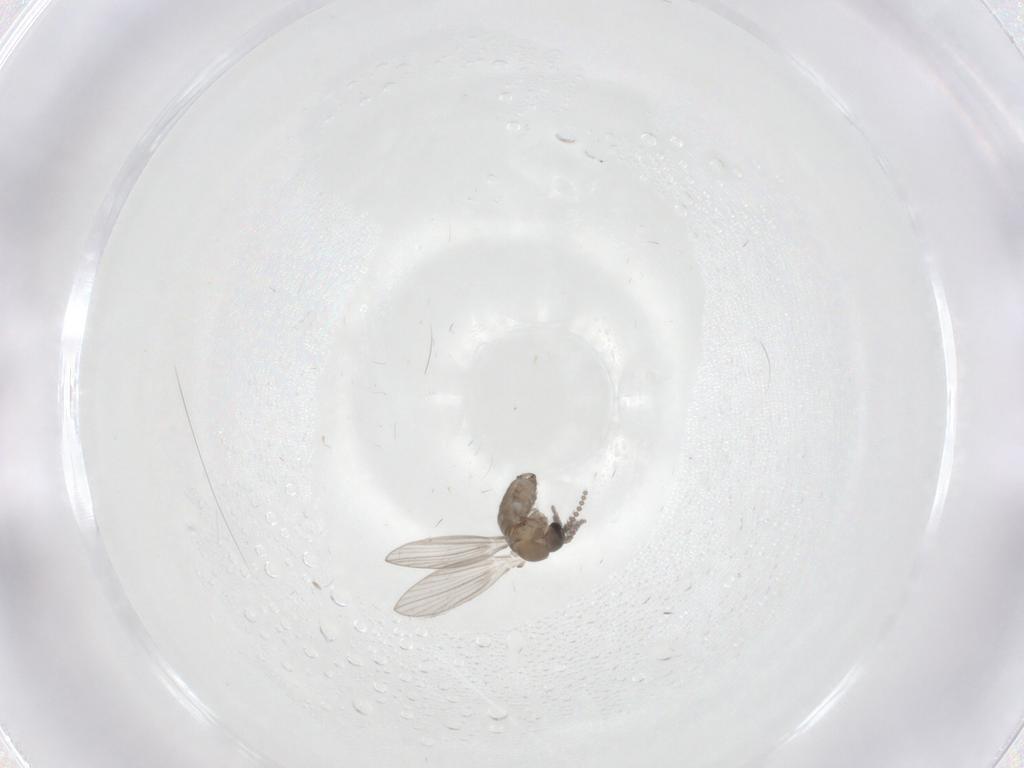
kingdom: Animalia
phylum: Arthropoda
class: Insecta
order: Diptera
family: Psychodidae
